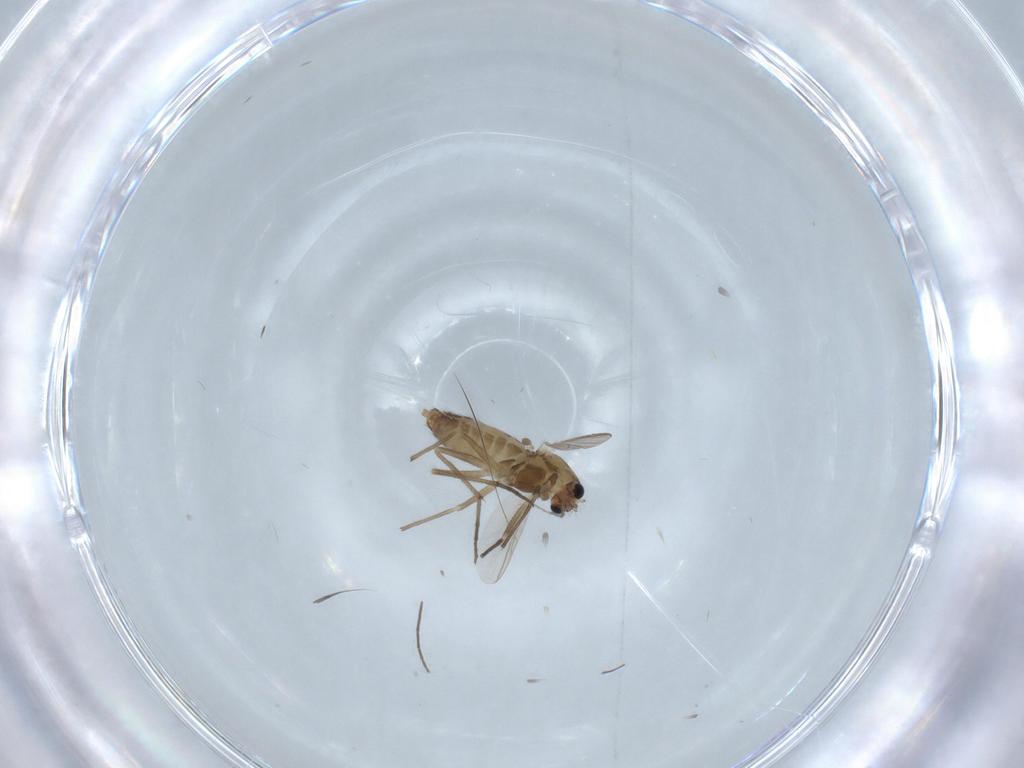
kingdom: Animalia
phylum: Arthropoda
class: Insecta
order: Diptera
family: Chironomidae
